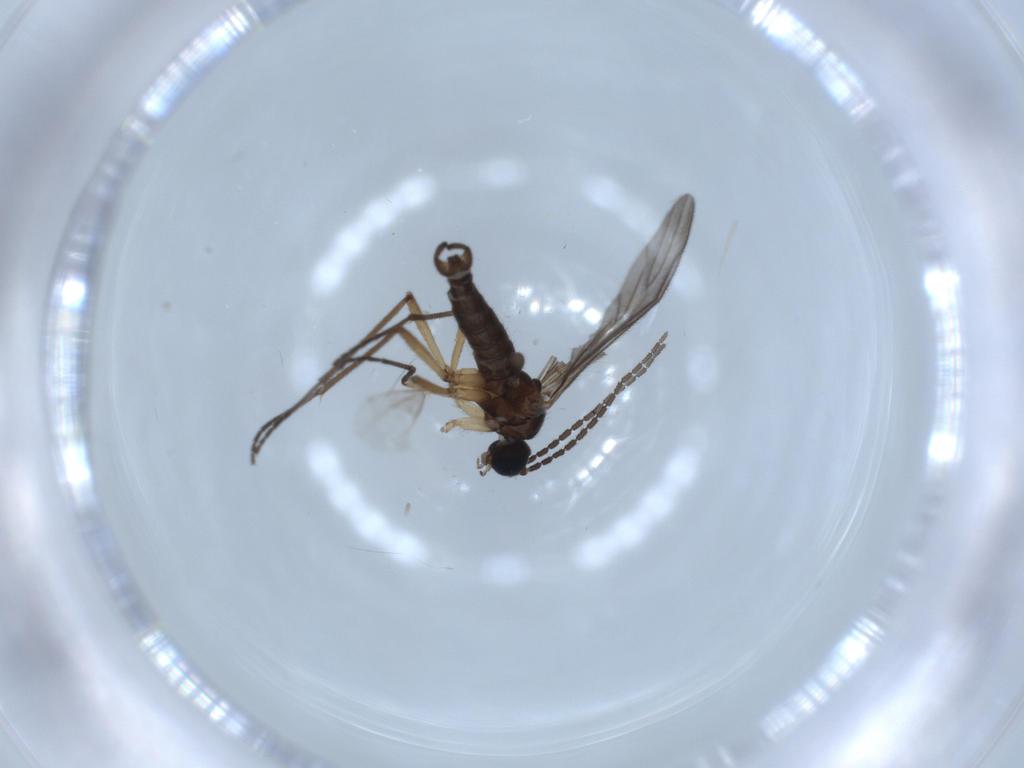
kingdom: Animalia
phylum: Arthropoda
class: Insecta
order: Diptera
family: Sciaridae
